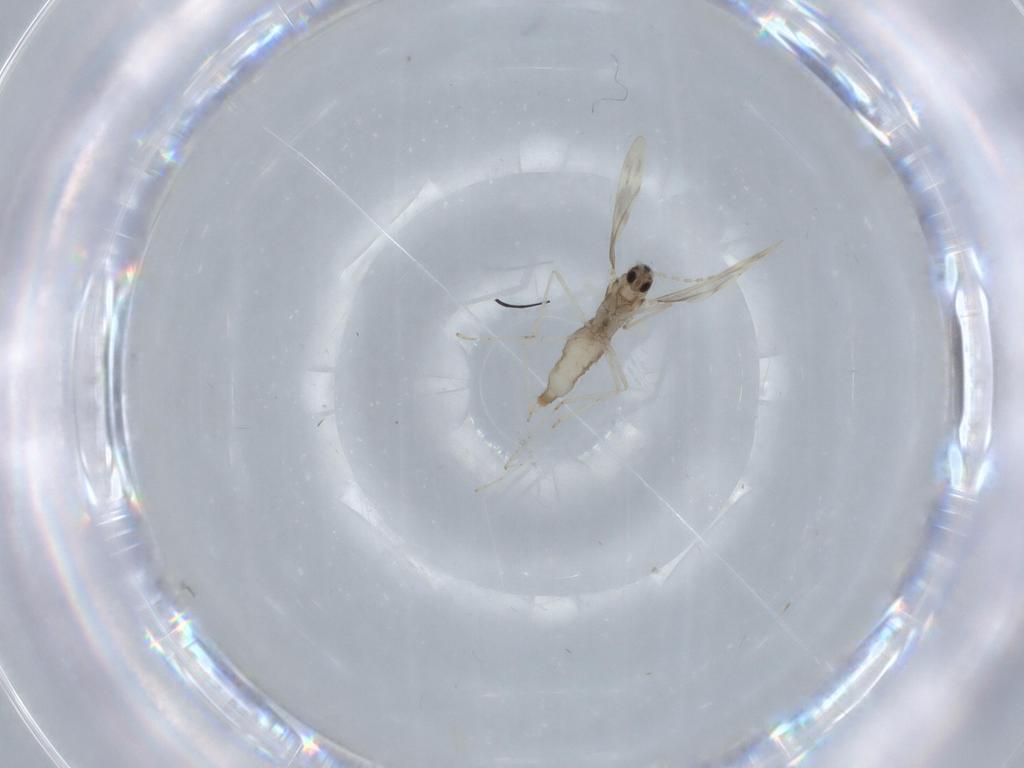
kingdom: Animalia
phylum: Arthropoda
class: Insecta
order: Diptera
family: Cecidomyiidae
